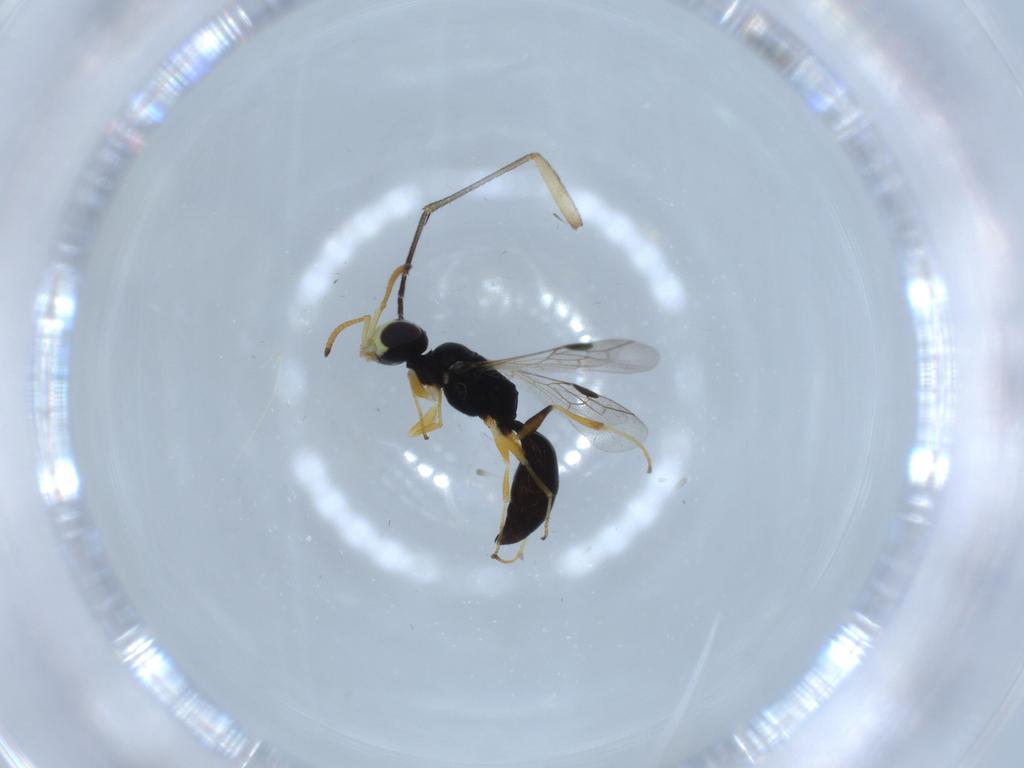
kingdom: Animalia
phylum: Arthropoda
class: Insecta
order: Hymenoptera
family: Pemphredonidae
